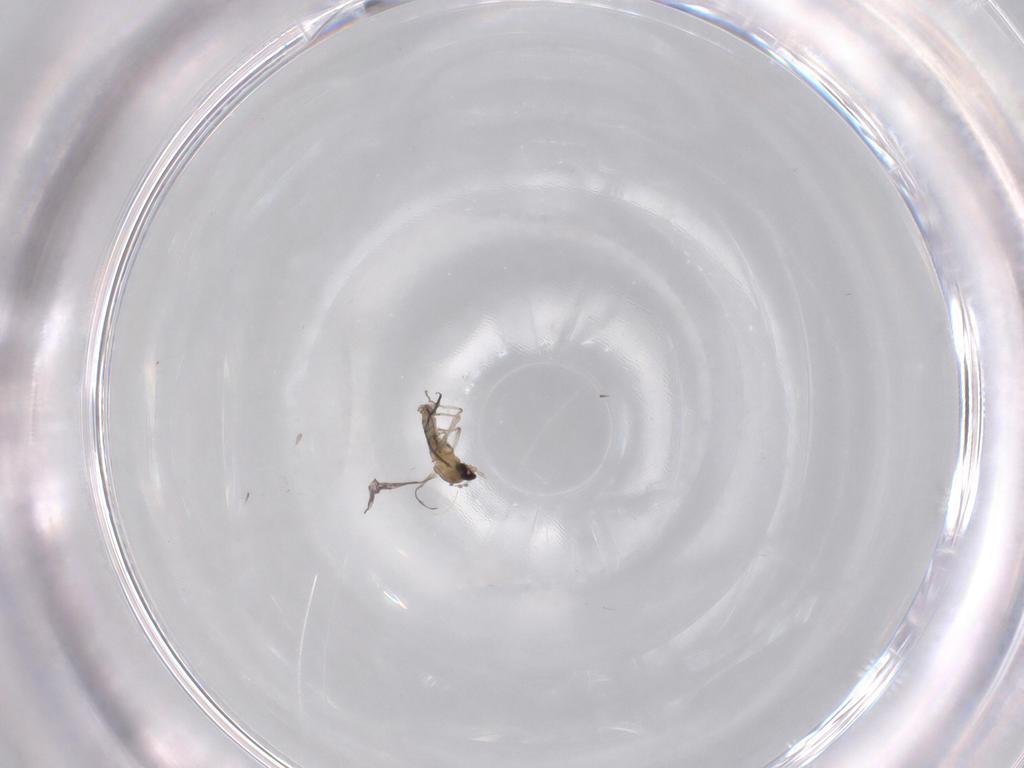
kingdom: Animalia
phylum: Arthropoda
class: Insecta
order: Diptera
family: Cecidomyiidae
